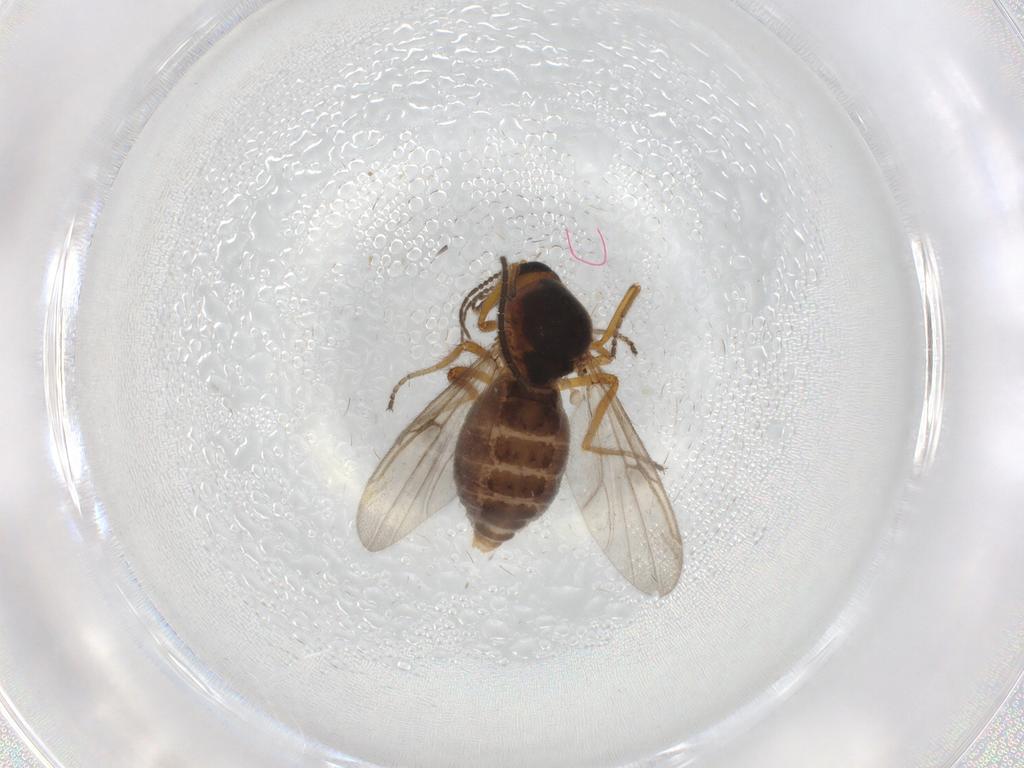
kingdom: Animalia
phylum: Arthropoda
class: Insecta
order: Diptera
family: Ceratopogonidae
